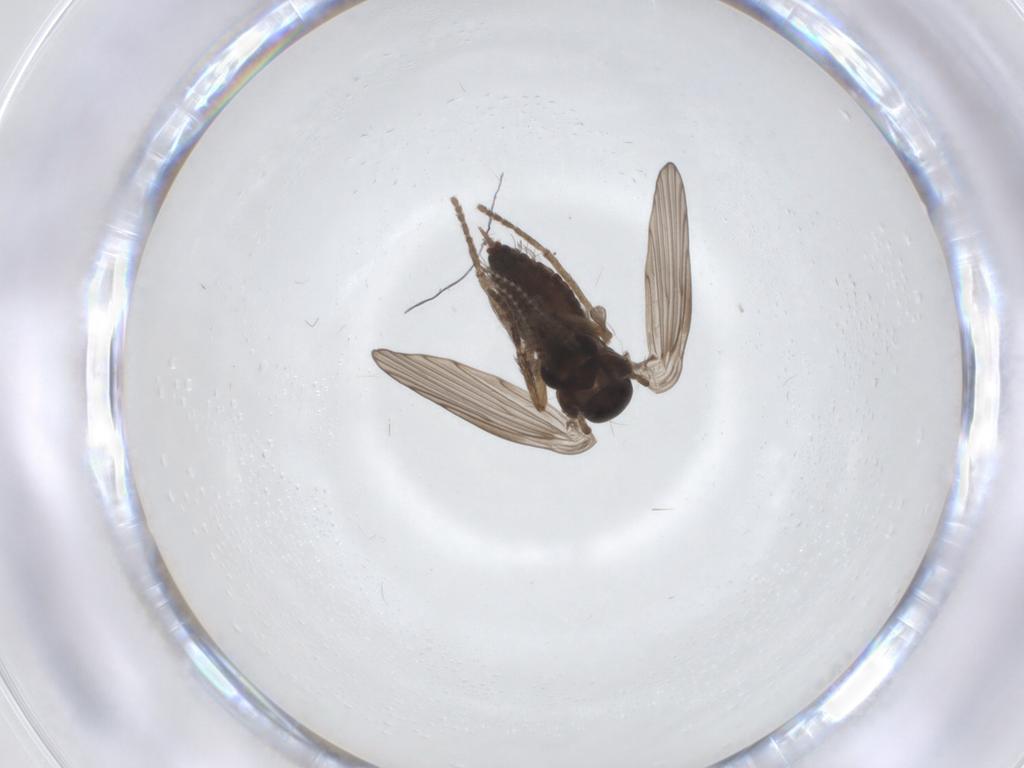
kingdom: Animalia
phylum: Arthropoda
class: Insecta
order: Diptera
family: Psychodidae
